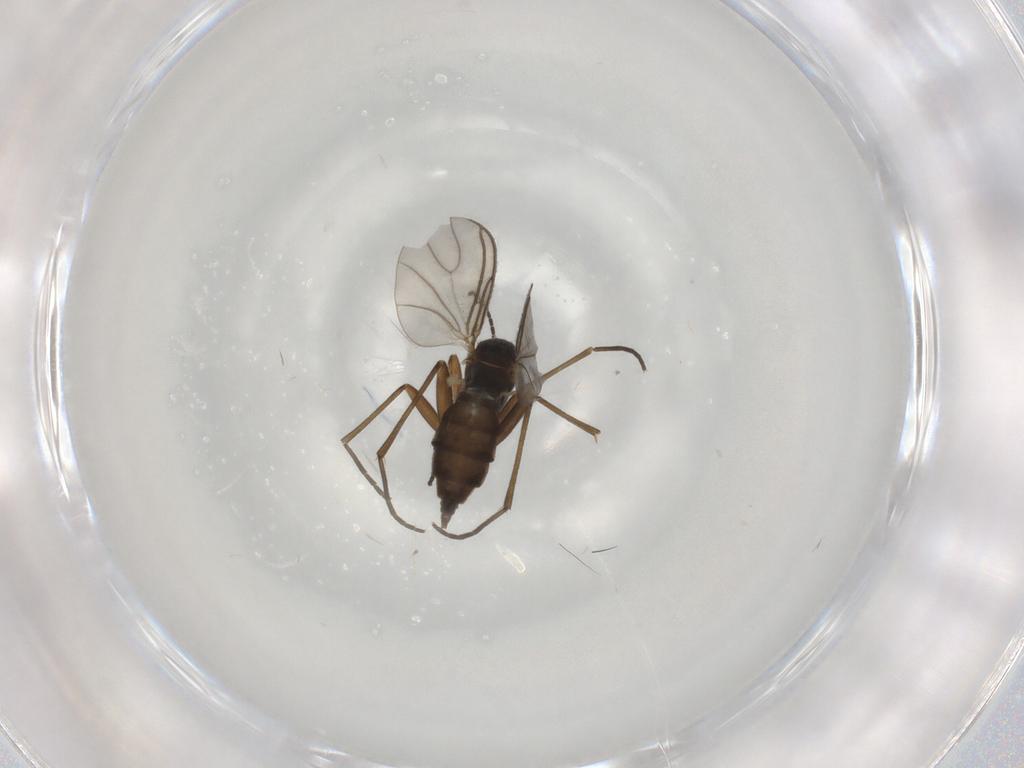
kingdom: Animalia
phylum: Arthropoda
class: Insecta
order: Diptera
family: Sciaridae
